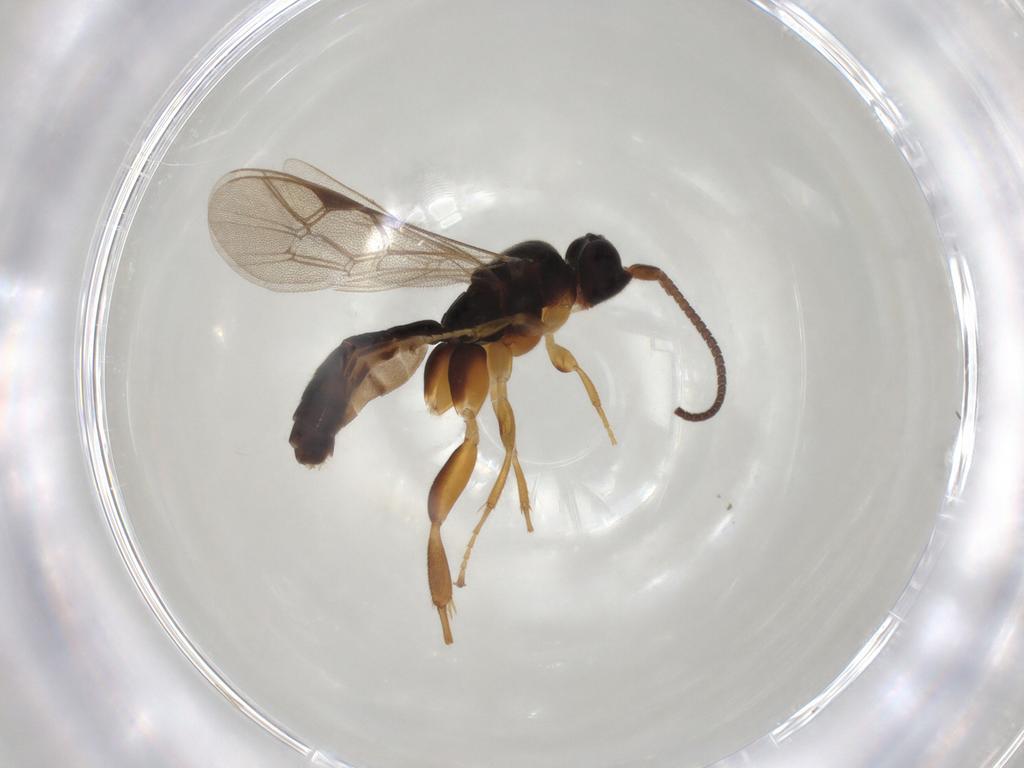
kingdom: Animalia
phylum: Arthropoda
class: Insecta
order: Hymenoptera
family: Ichneumonidae
